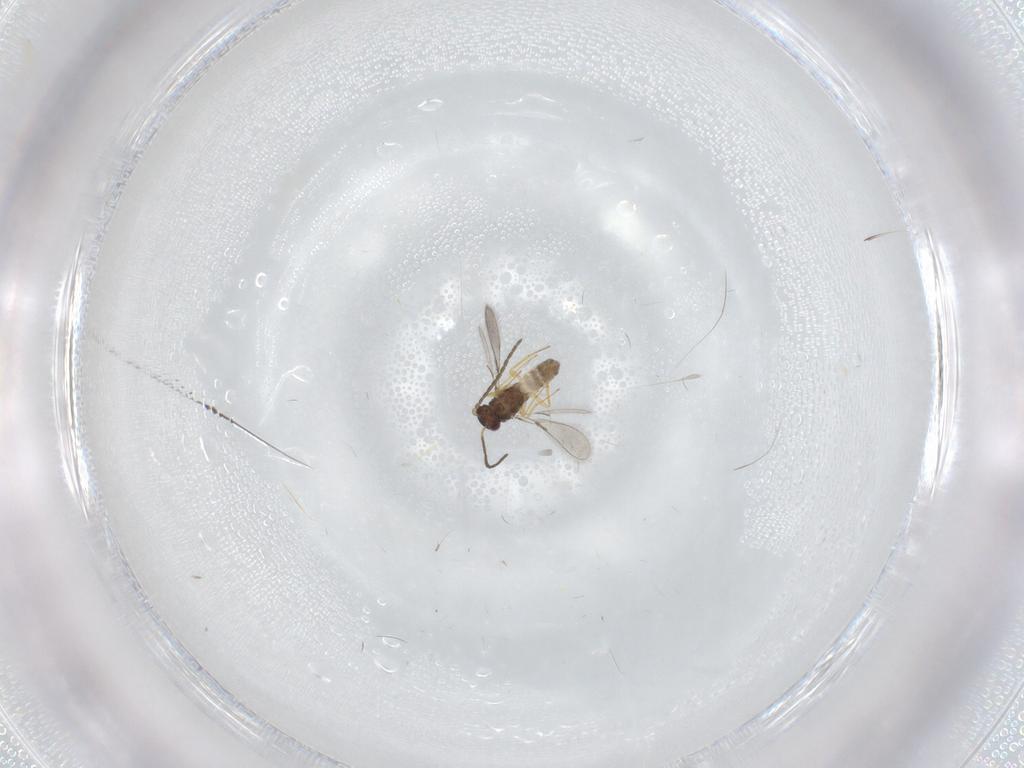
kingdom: Animalia
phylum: Arthropoda
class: Insecta
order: Hymenoptera
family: Mymaridae
